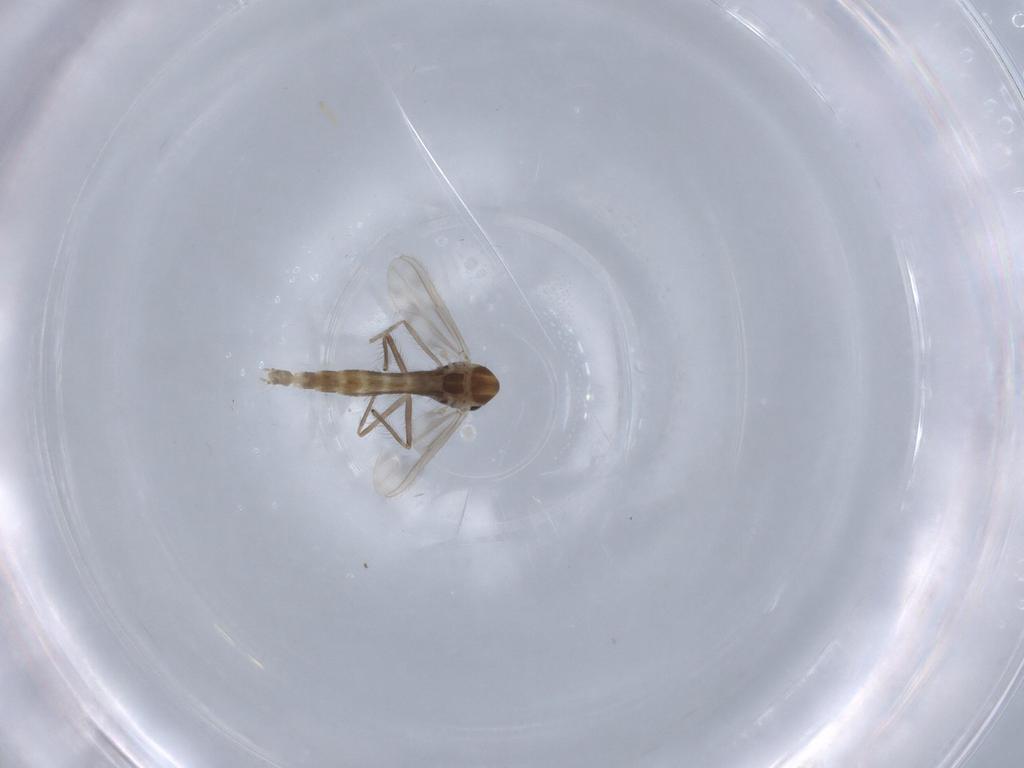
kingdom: Animalia
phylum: Arthropoda
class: Insecta
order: Diptera
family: Chironomidae
